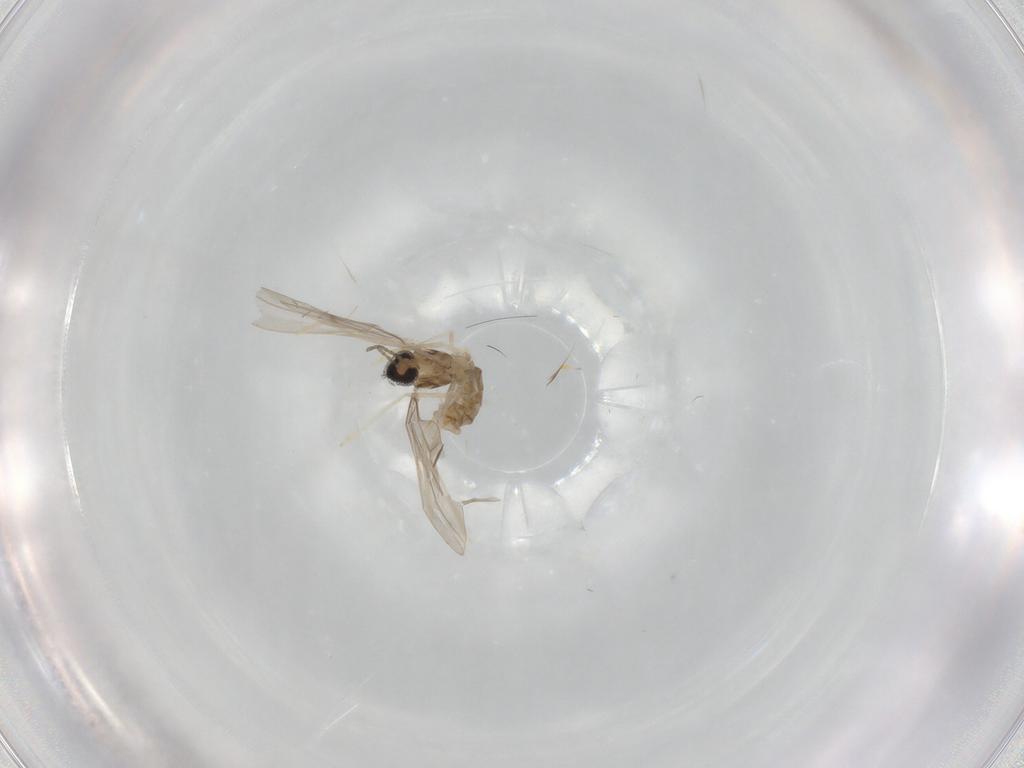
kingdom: Animalia
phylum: Arthropoda
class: Insecta
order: Diptera
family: Cecidomyiidae
